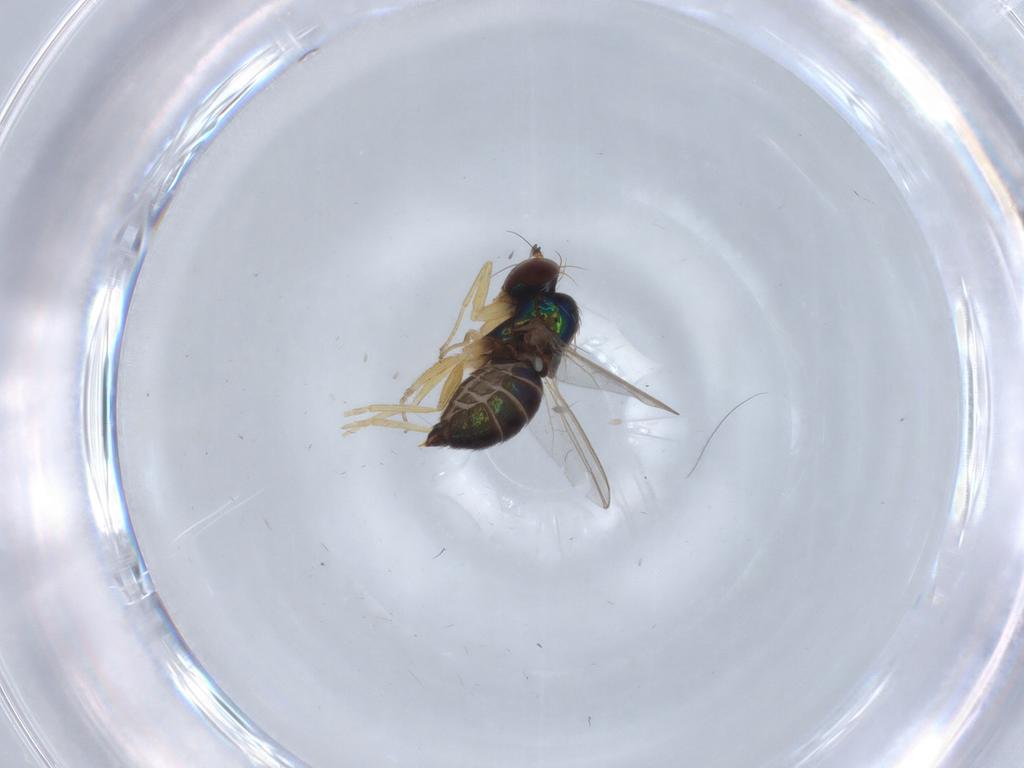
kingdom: Animalia
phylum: Arthropoda
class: Insecta
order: Diptera
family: Dolichopodidae
